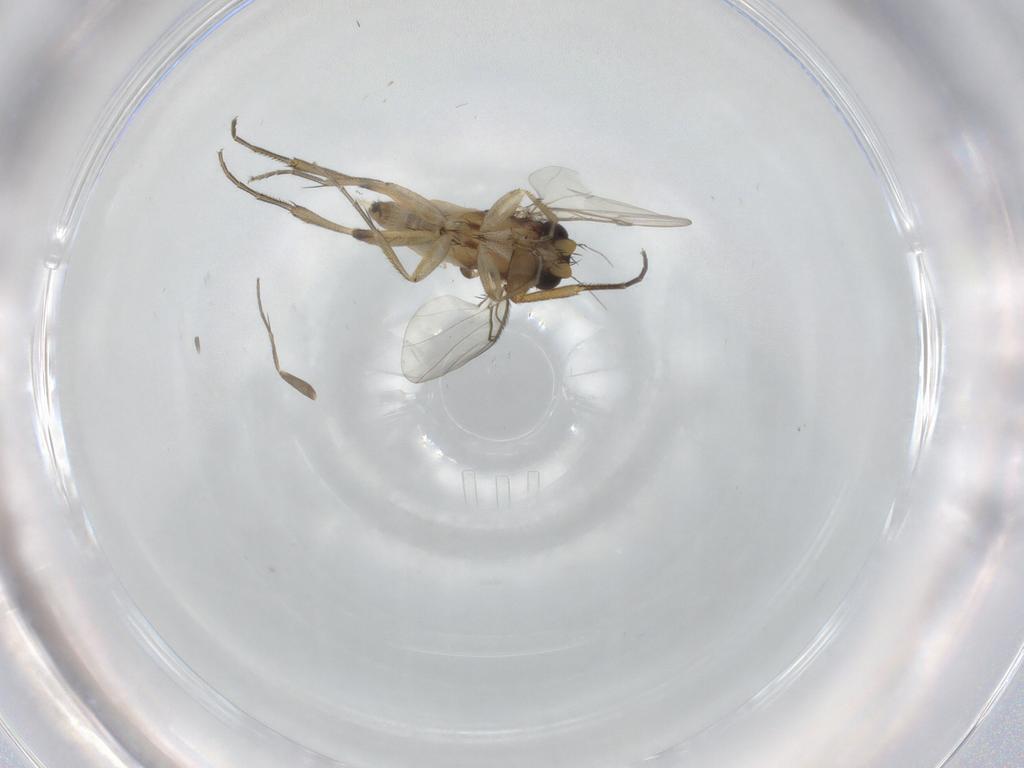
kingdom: Animalia
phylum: Arthropoda
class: Insecta
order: Diptera
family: Phoridae
